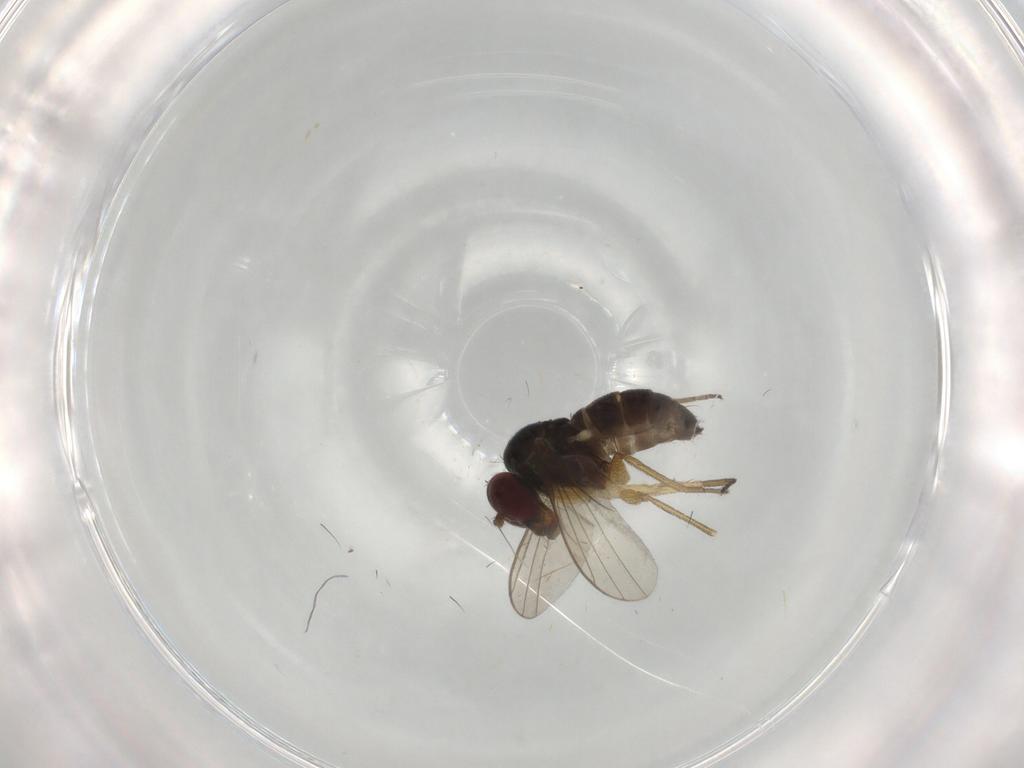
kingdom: Animalia
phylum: Arthropoda
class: Insecta
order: Diptera
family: Dolichopodidae
